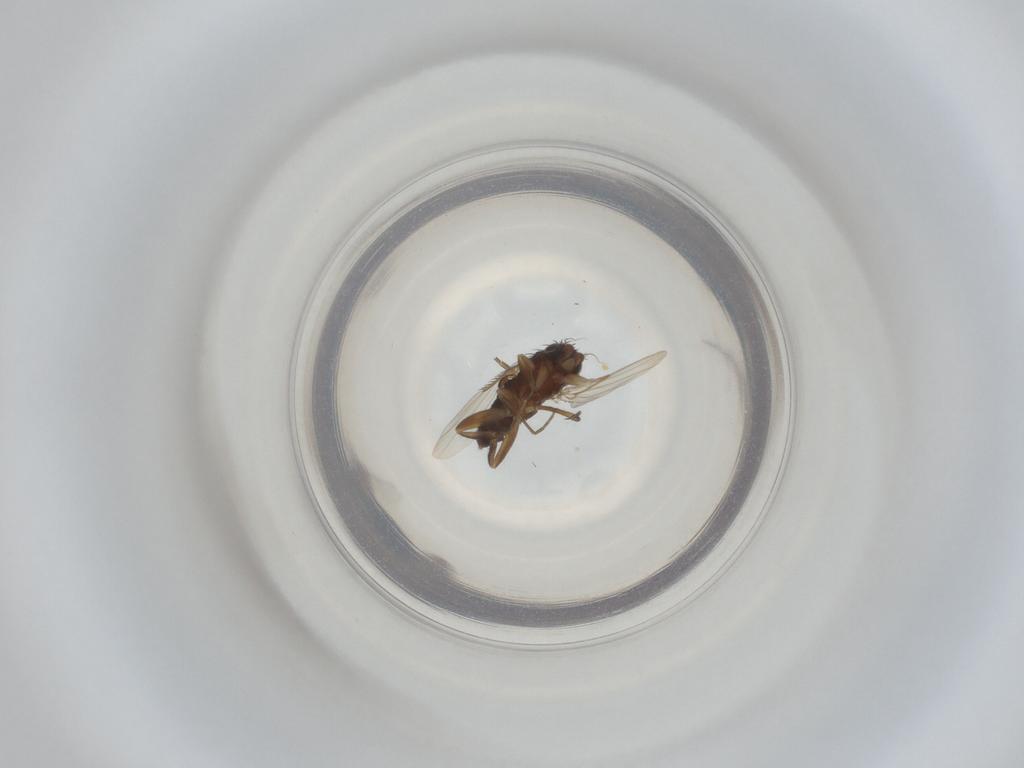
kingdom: Animalia
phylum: Arthropoda
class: Insecta
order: Diptera
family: Phoridae
